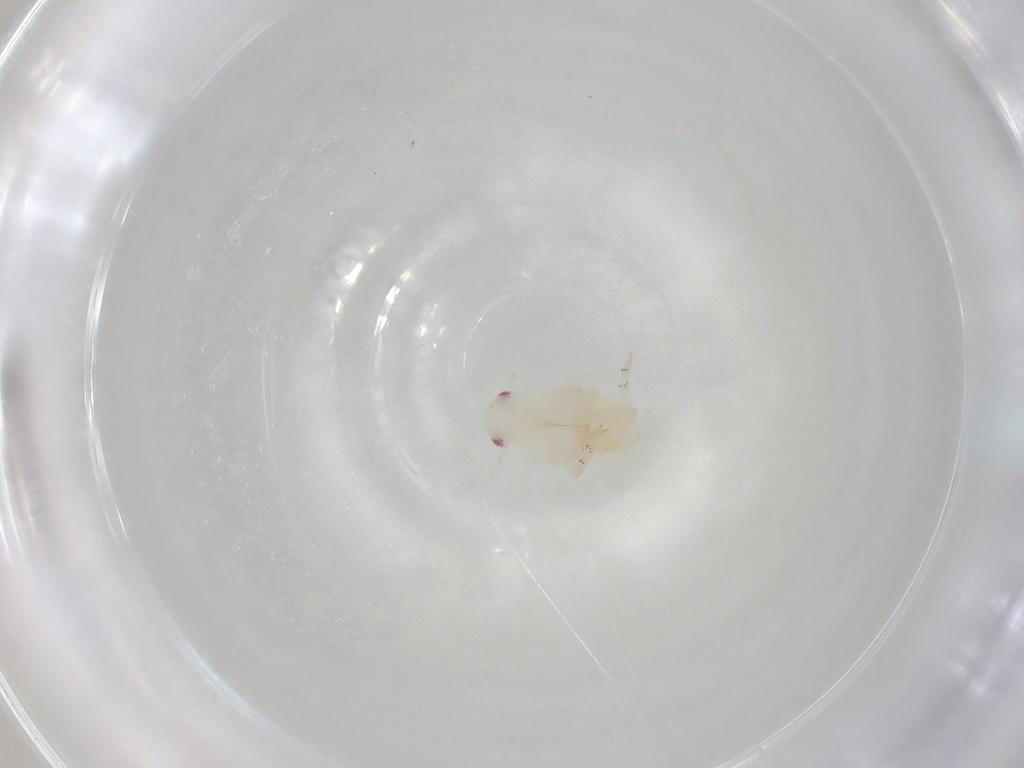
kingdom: Animalia
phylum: Arthropoda
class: Insecta
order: Hemiptera
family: Flatidae
